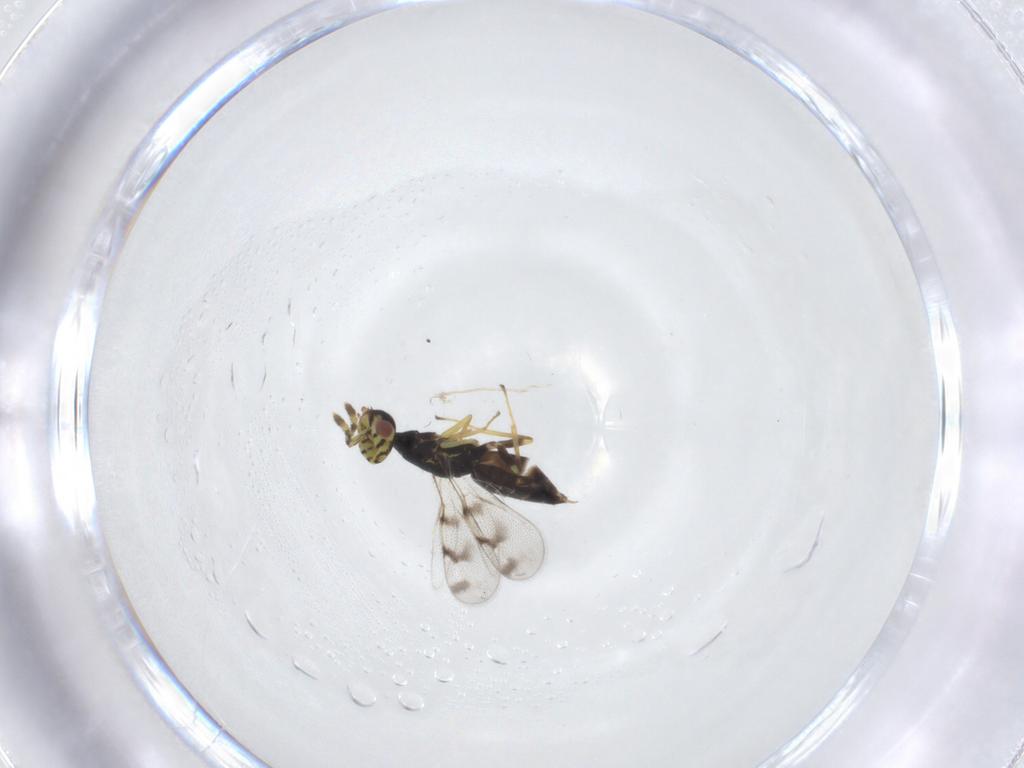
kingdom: Animalia
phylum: Arthropoda
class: Insecta
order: Hymenoptera
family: Eulophidae
